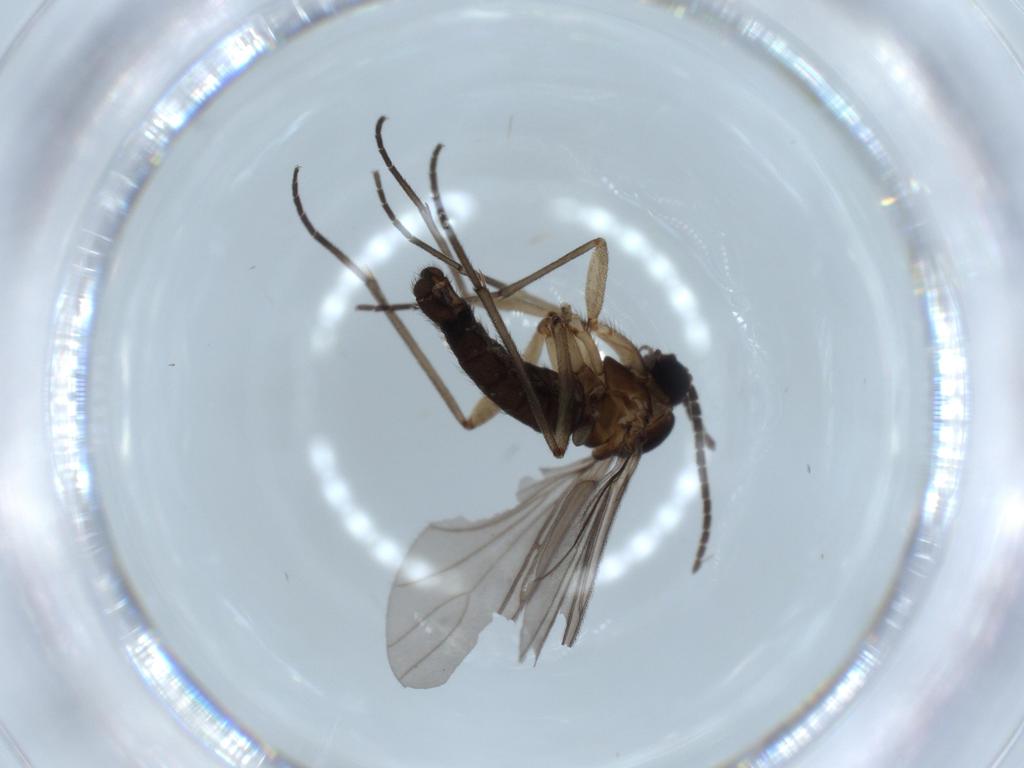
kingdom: Animalia
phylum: Arthropoda
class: Insecta
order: Diptera
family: Sciaridae
